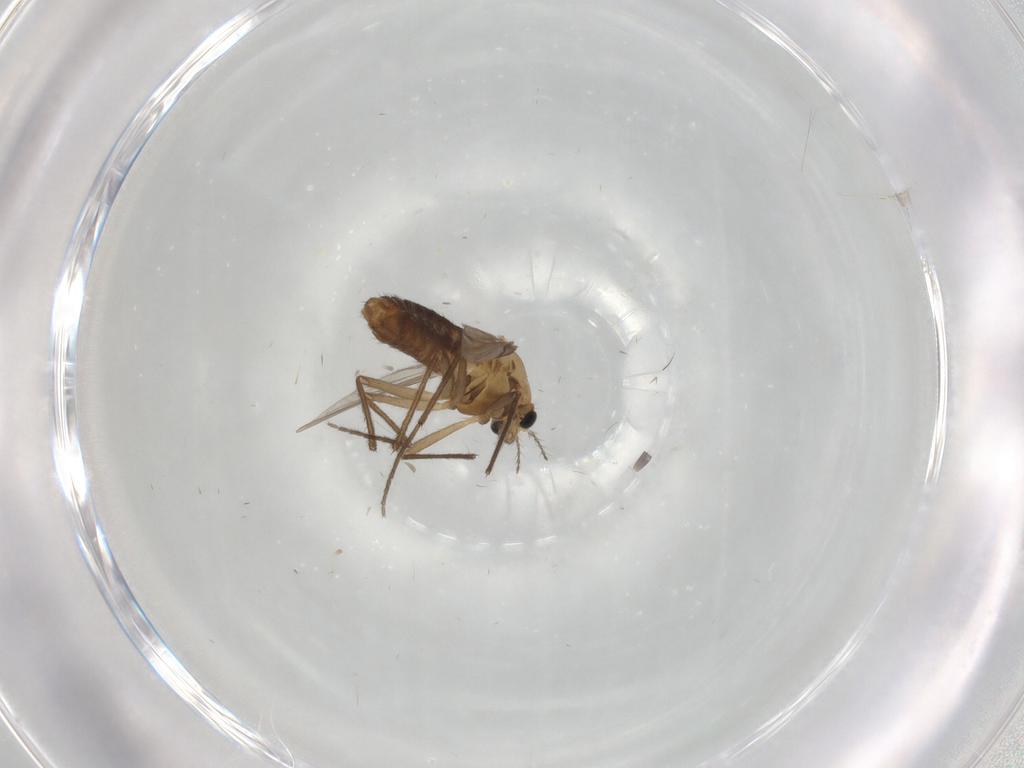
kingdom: Animalia
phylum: Arthropoda
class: Insecta
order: Diptera
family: Chironomidae
